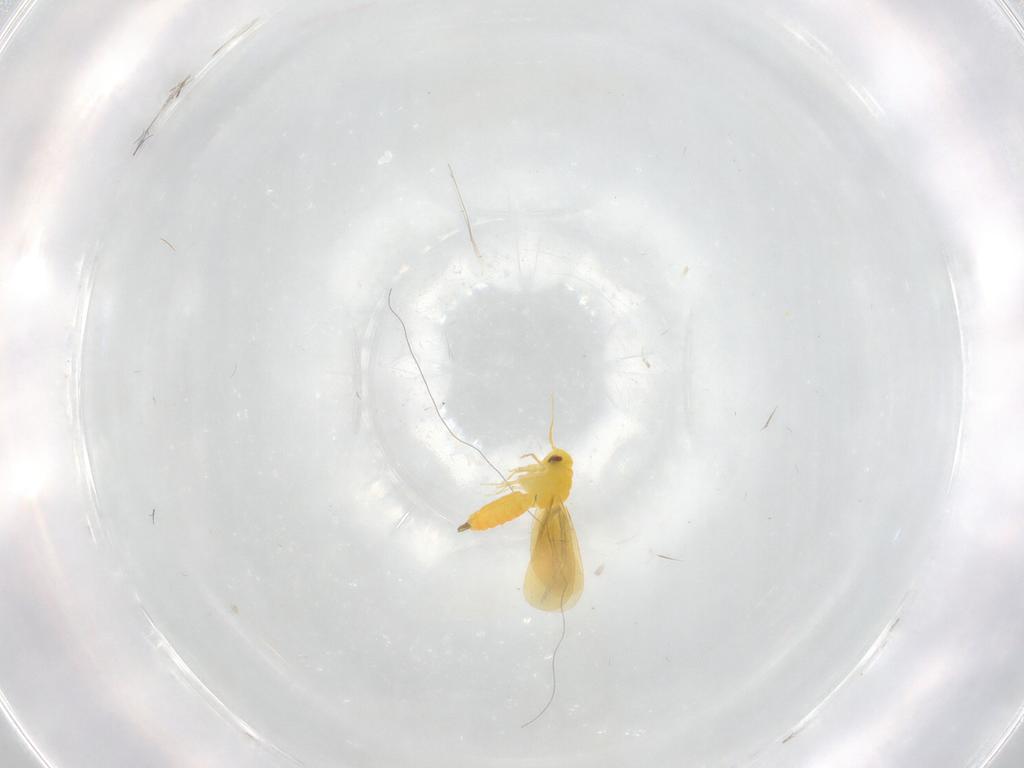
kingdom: Animalia
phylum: Arthropoda
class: Insecta
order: Hemiptera
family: Aleyrodidae
